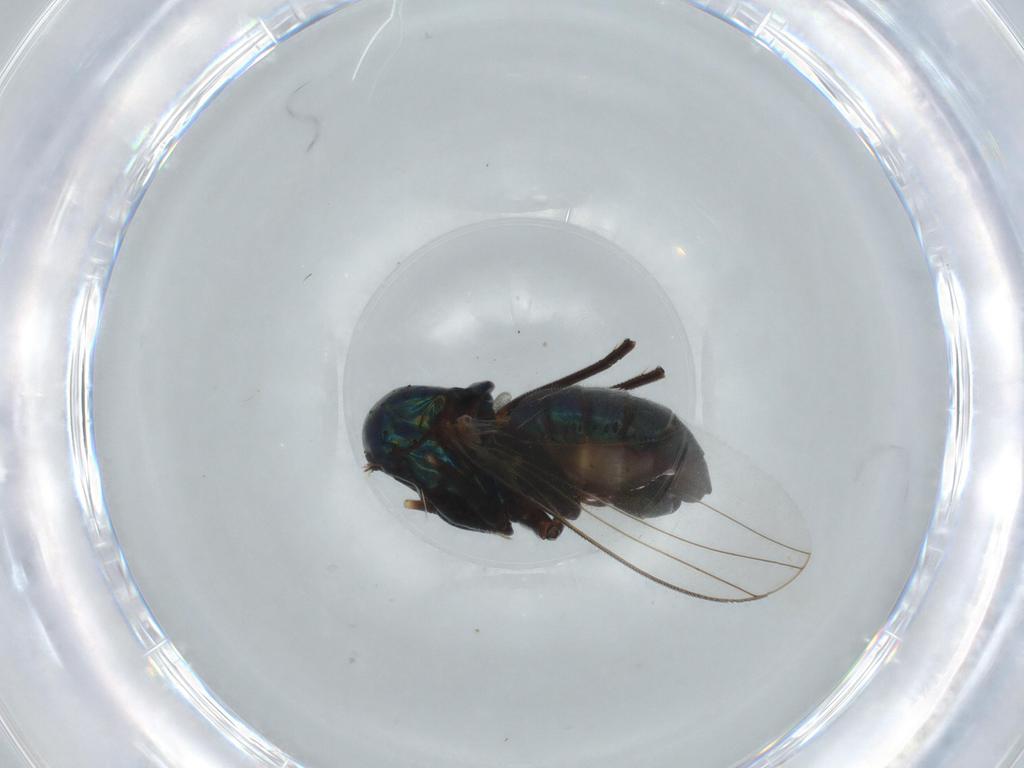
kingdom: Animalia
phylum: Arthropoda
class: Insecta
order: Diptera
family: Dolichopodidae
